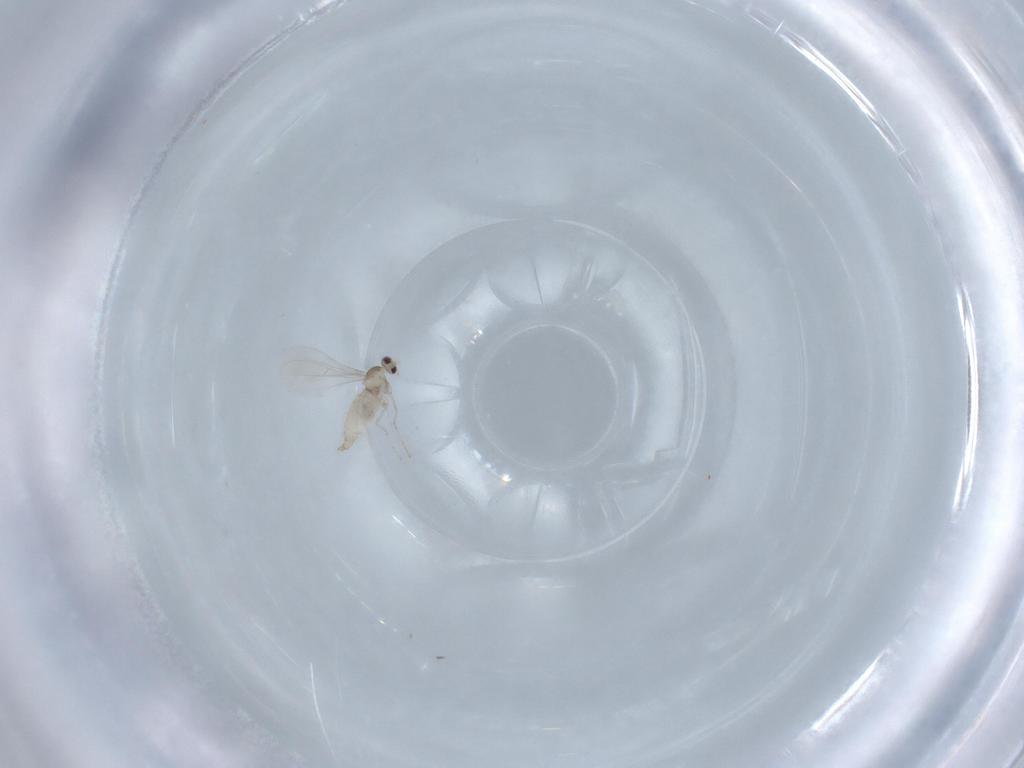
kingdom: Animalia
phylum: Arthropoda
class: Insecta
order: Diptera
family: Cecidomyiidae
